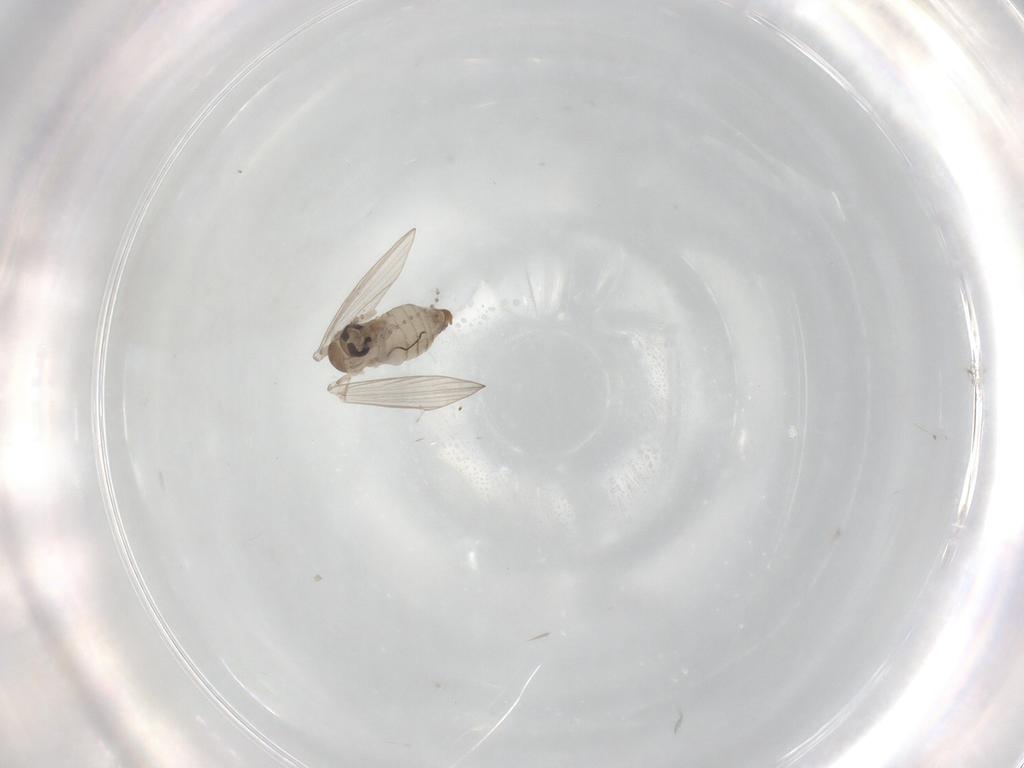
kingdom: Animalia
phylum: Arthropoda
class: Insecta
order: Diptera
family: Psychodidae
